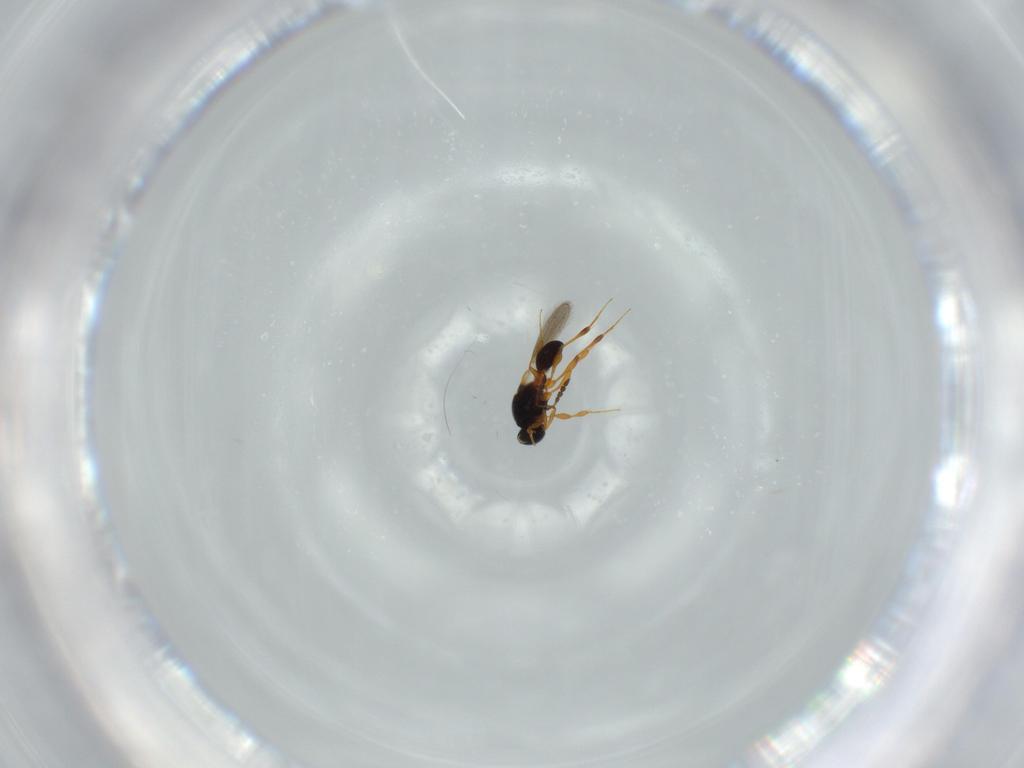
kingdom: Animalia
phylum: Arthropoda
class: Insecta
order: Hymenoptera
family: Platygastridae
